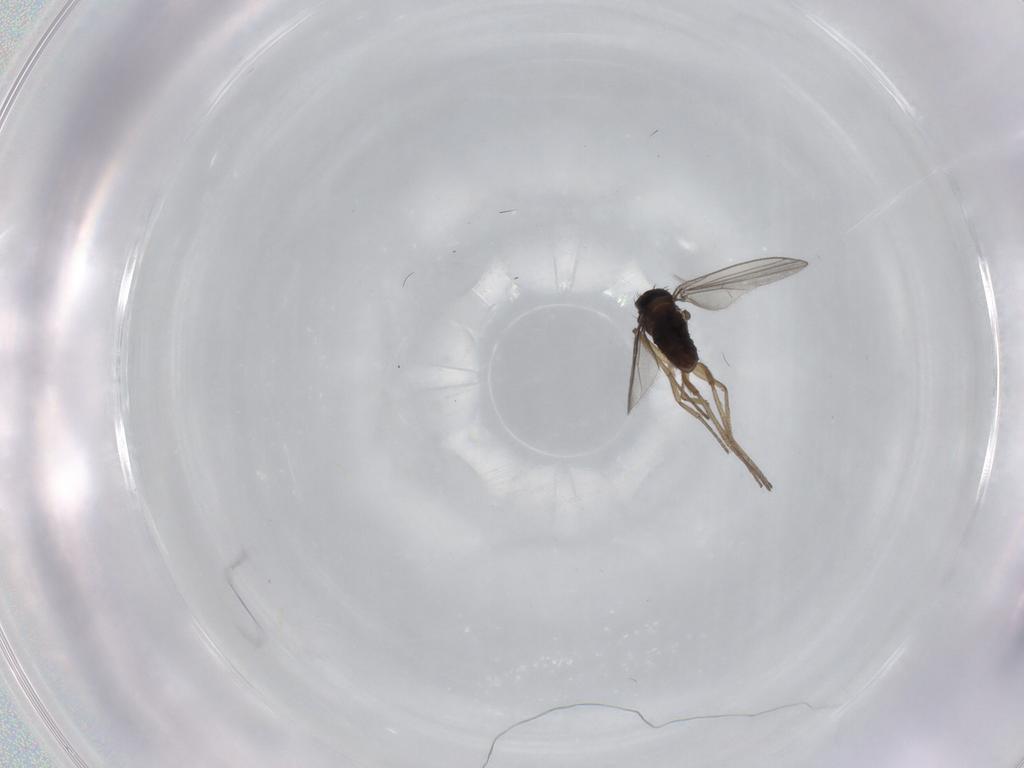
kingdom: Animalia
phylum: Arthropoda
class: Insecta
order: Diptera
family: Dolichopodidae
